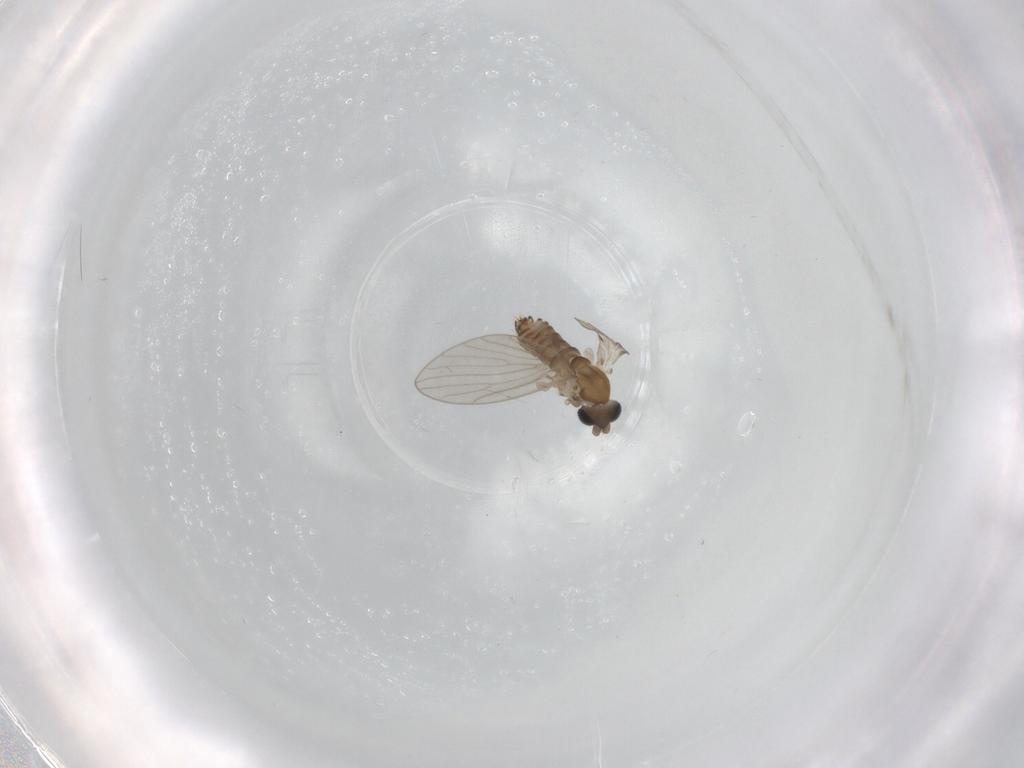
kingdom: Animalia
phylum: Arthropoda
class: Insecta
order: Diptera
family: Psychodidae
